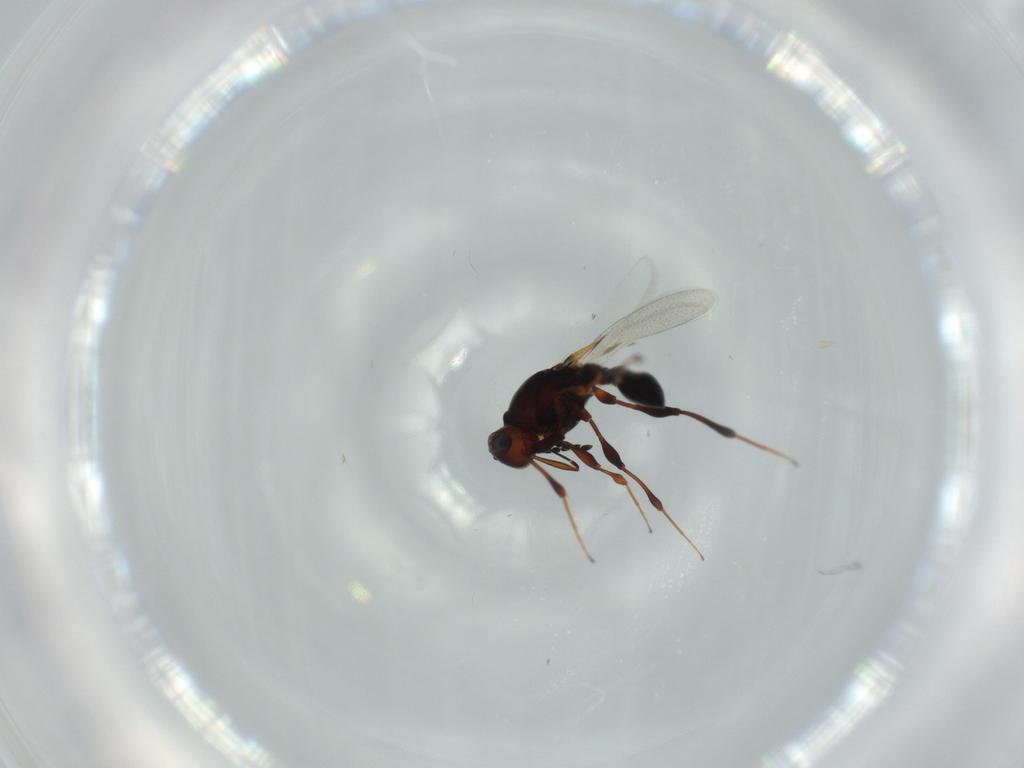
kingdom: Animalia
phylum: Arthropoda
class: Insecta
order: Hymenoptera
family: Platygastridae
